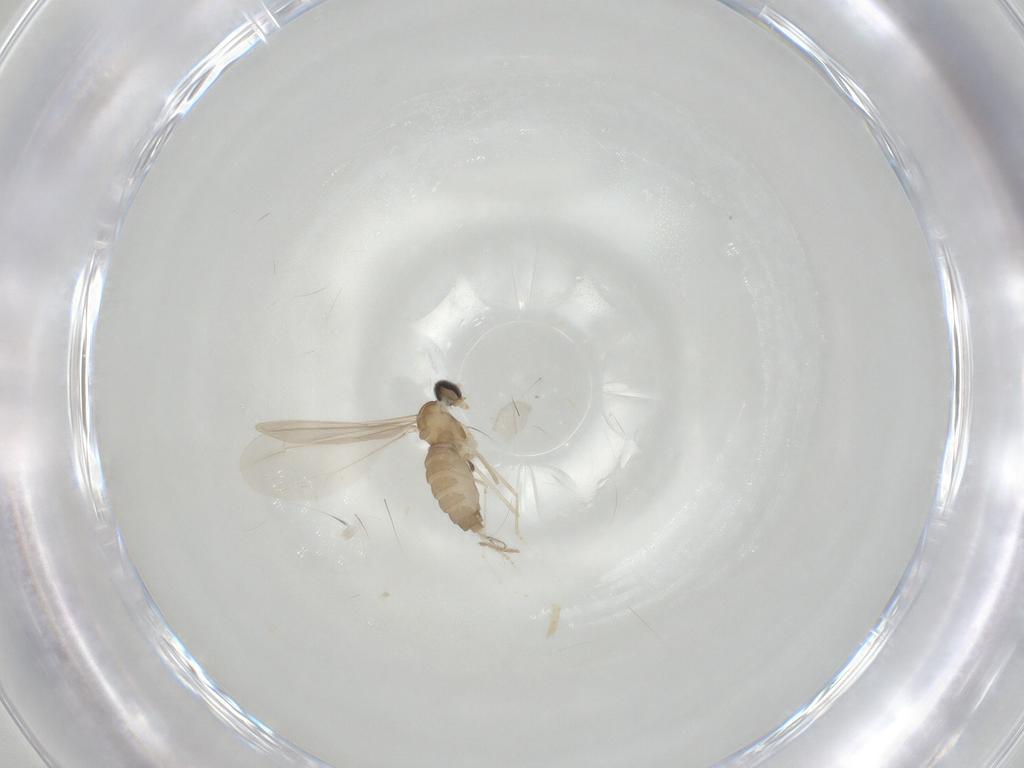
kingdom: Animalia
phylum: Arthropoda
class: Insecta
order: Diptera
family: Cecidomyiidae
